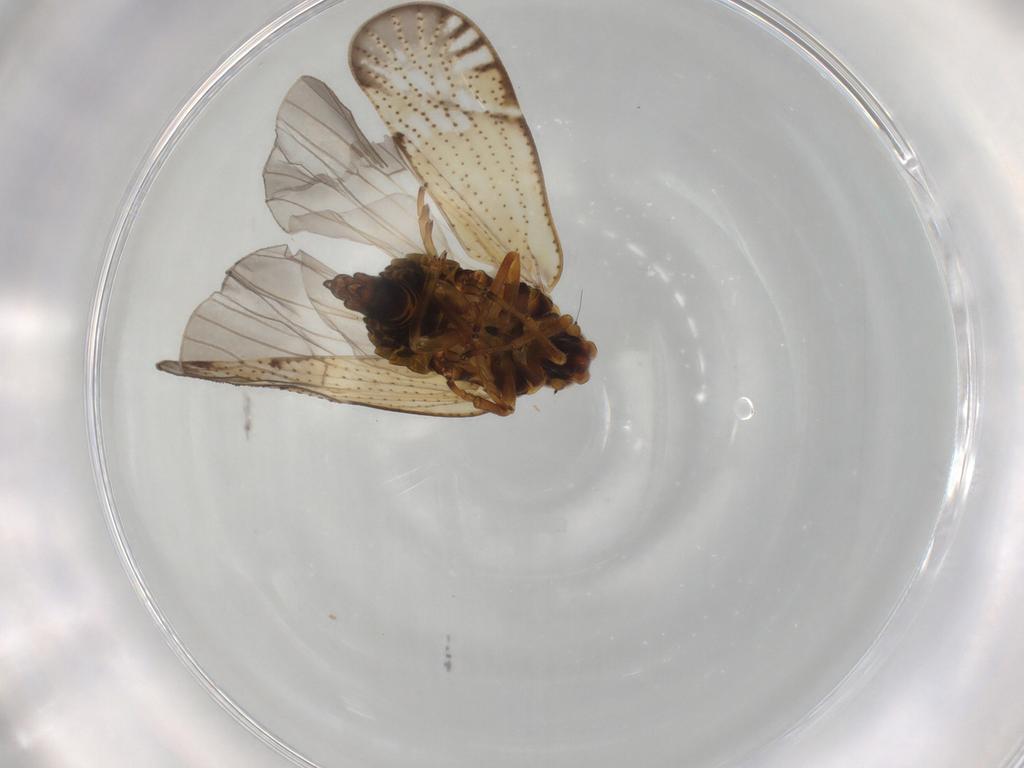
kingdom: Animalia
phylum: Arthropoda
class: Insecta
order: Hemiptera
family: Cixiidae
